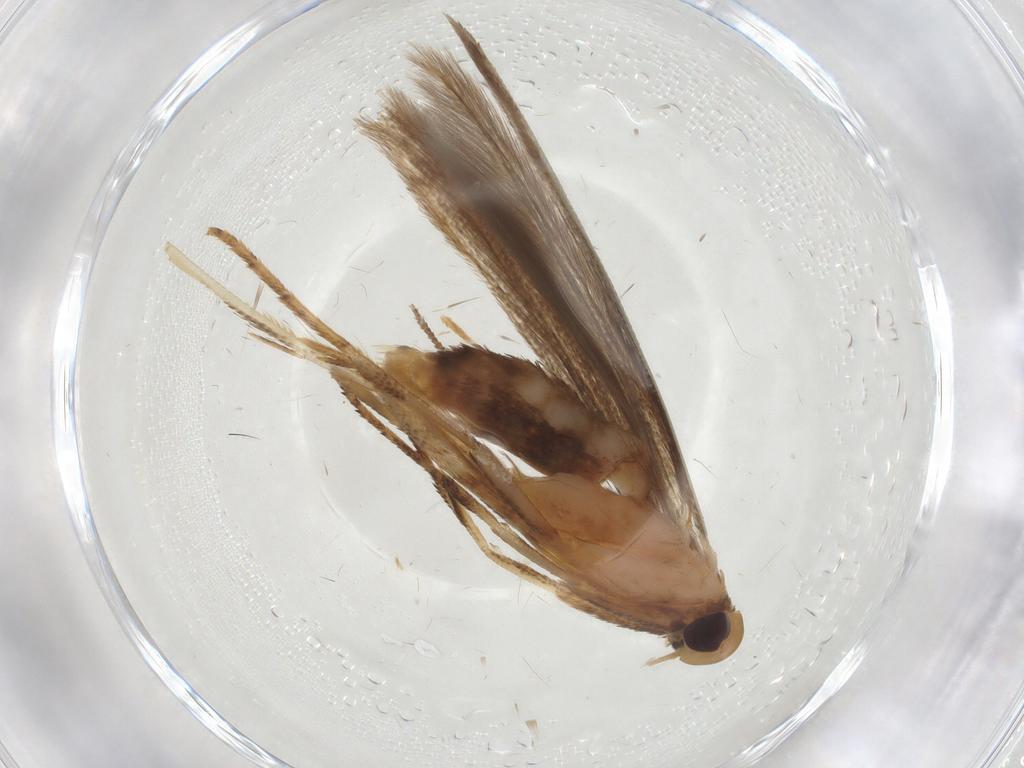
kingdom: Animalia
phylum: Arthropoda
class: Insecta
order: Lepidoptera
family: Erebidae
